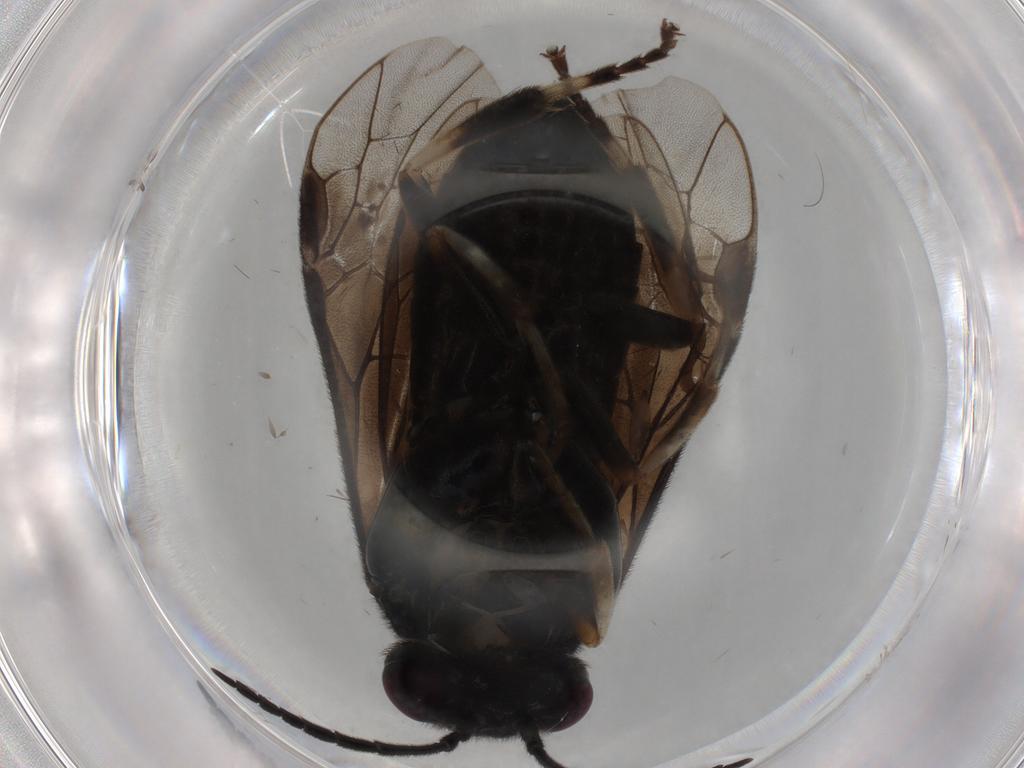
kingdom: Animalia
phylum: Arthropoda
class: Insecta
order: Hymenoptera
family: Tenthredinidae
